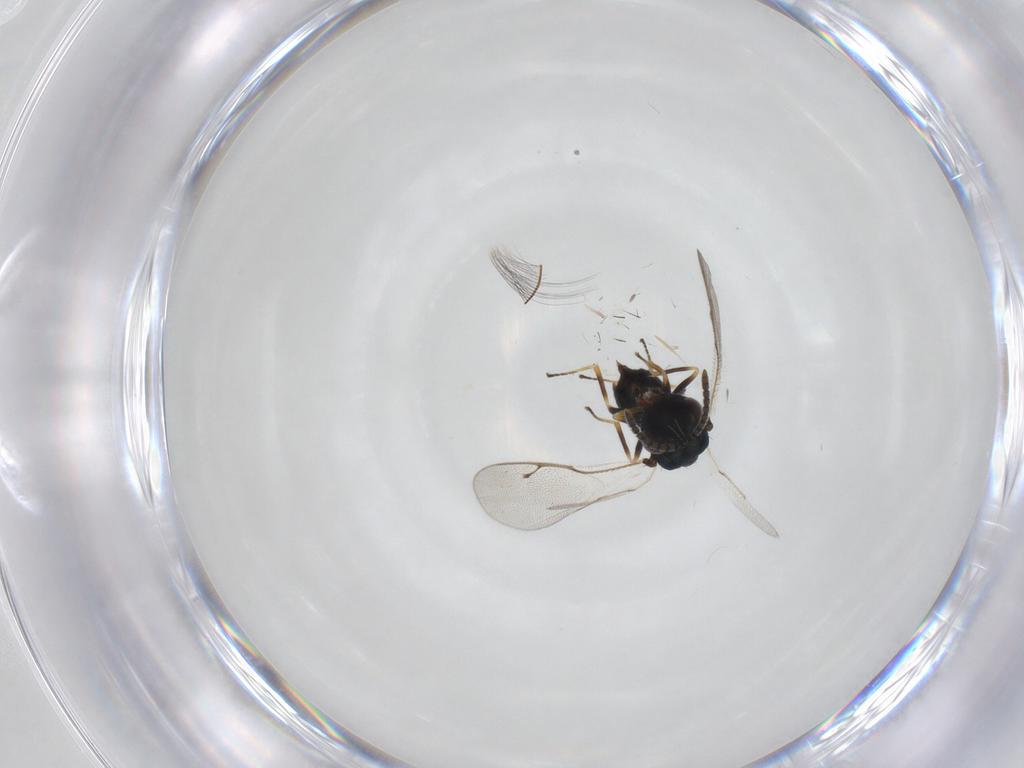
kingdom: Animalia
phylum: Arthropoda
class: Insecta
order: Hymenoptera
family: Pteromalidae
